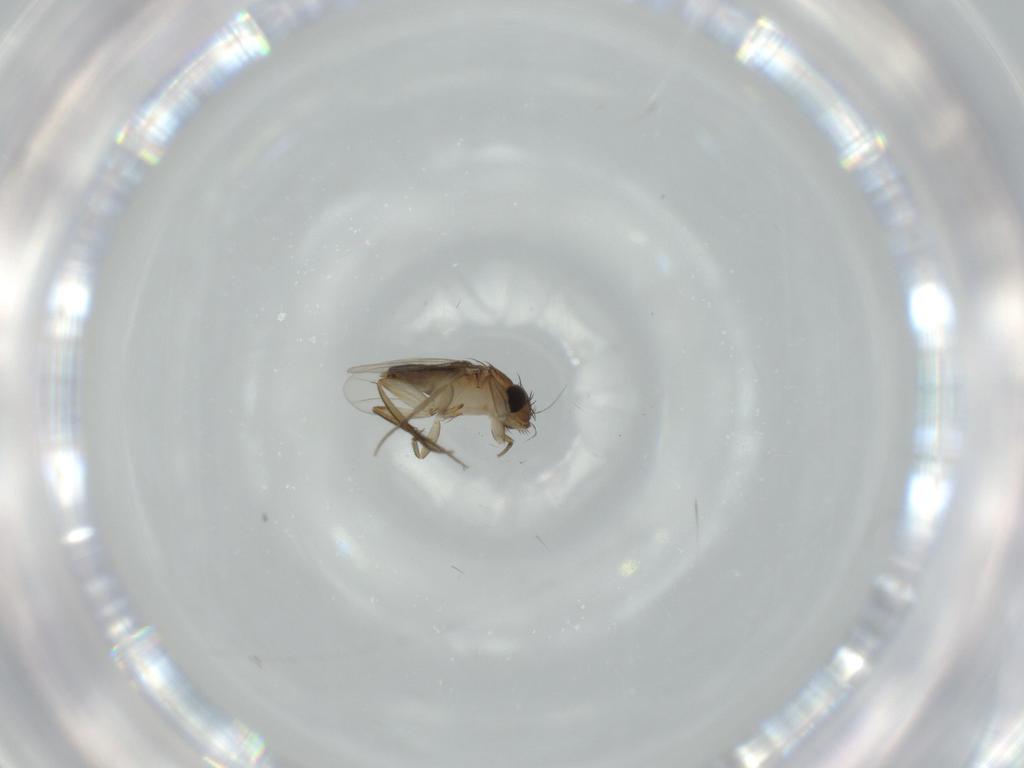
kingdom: Animalia
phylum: Arthropoda
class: Insecta
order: Diptera
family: Phoridae
